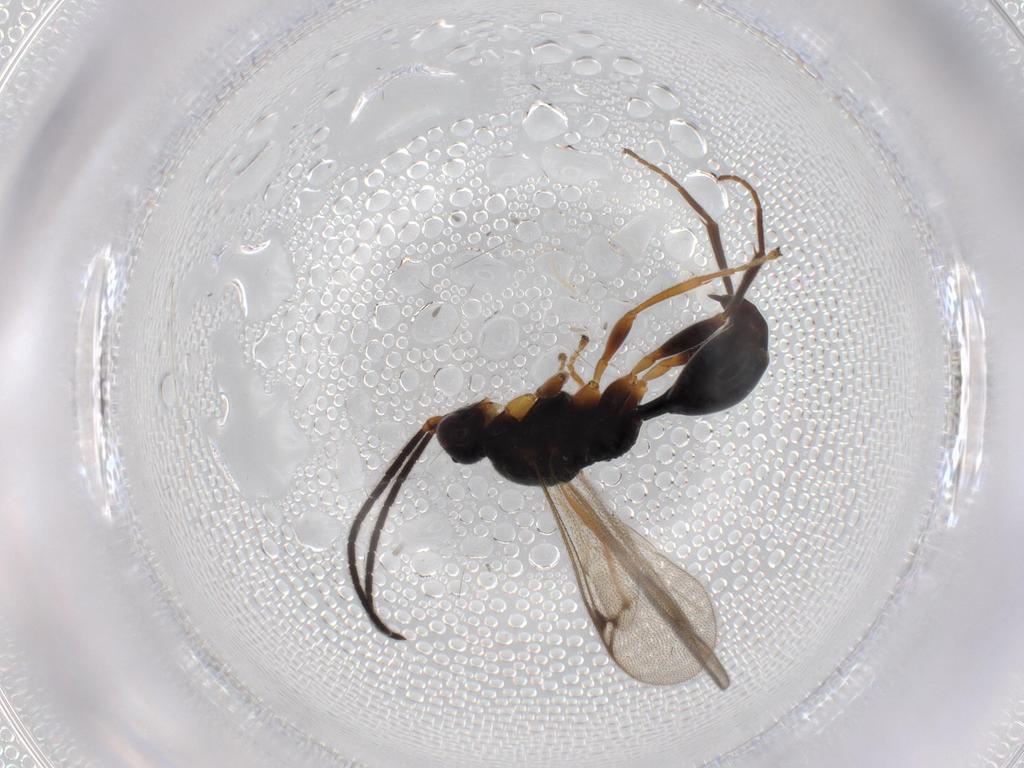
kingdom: Animalia
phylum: Arthropoda
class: Insecta
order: Hymenoptera
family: Proctotrupidae
